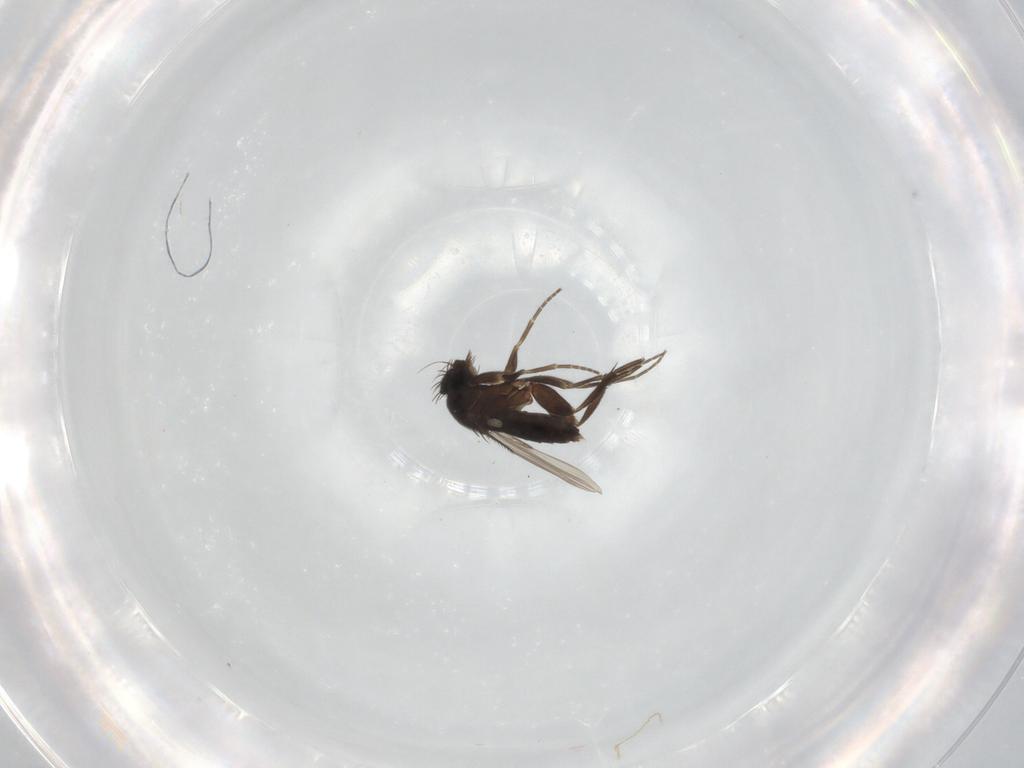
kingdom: Animalia
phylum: Arthropoda
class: Insecta
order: Diptera
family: Phoridae
